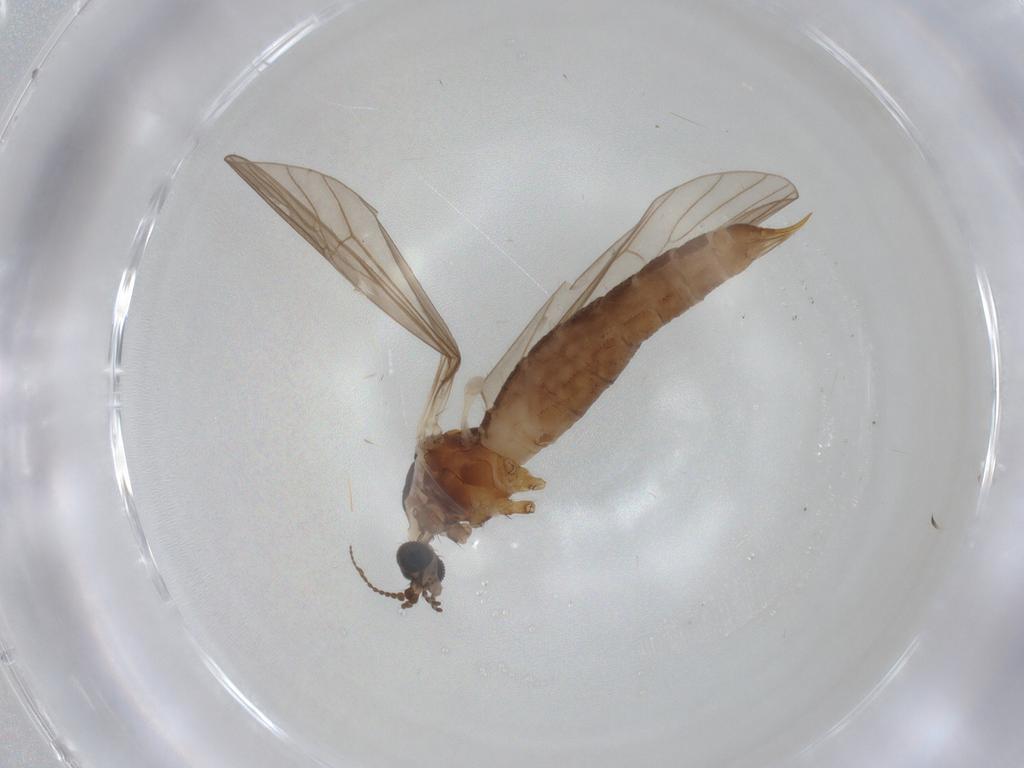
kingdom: Animalia
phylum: Arthropoda
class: Insecta
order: Diptera
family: Limoniidae
